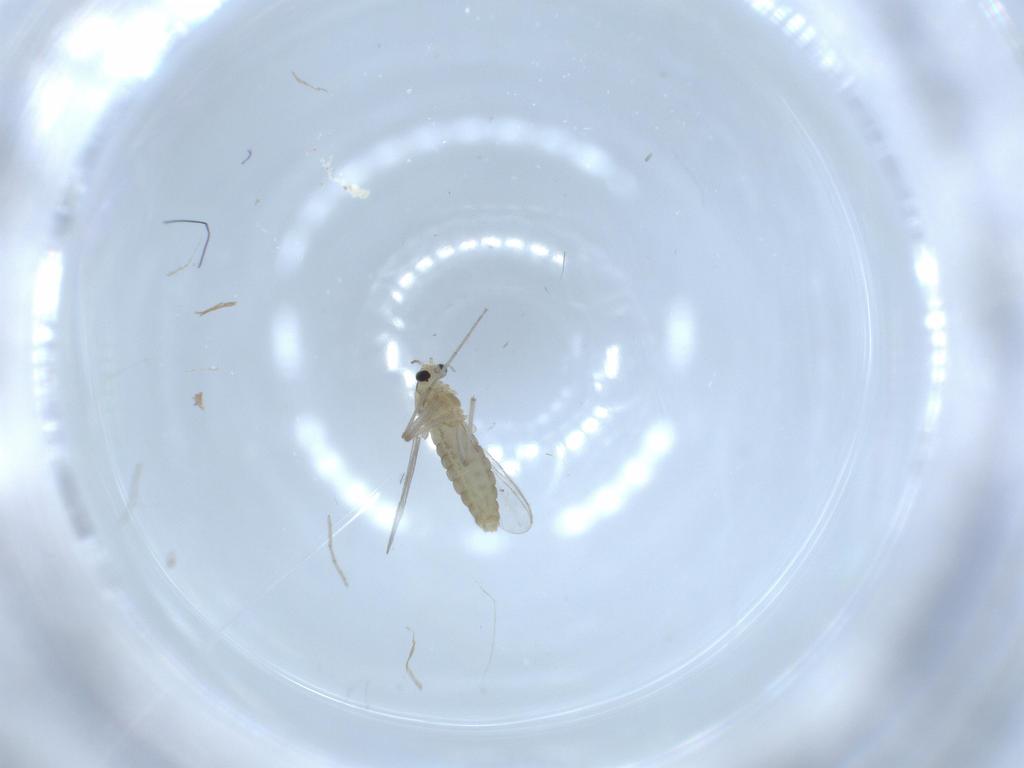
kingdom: Animalia
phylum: Arthropoda
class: Insecta
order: Diptera
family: Chironomidae
